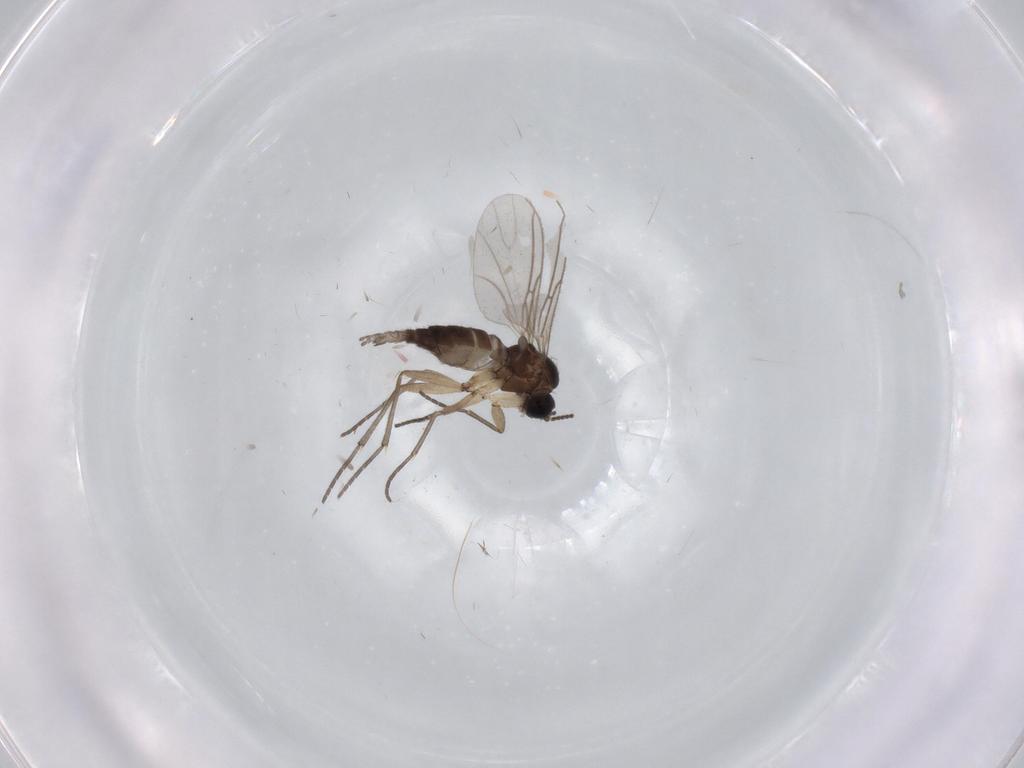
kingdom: Animalia
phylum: Arthropoda
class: Insecta
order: Diptera
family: Sciaridae
